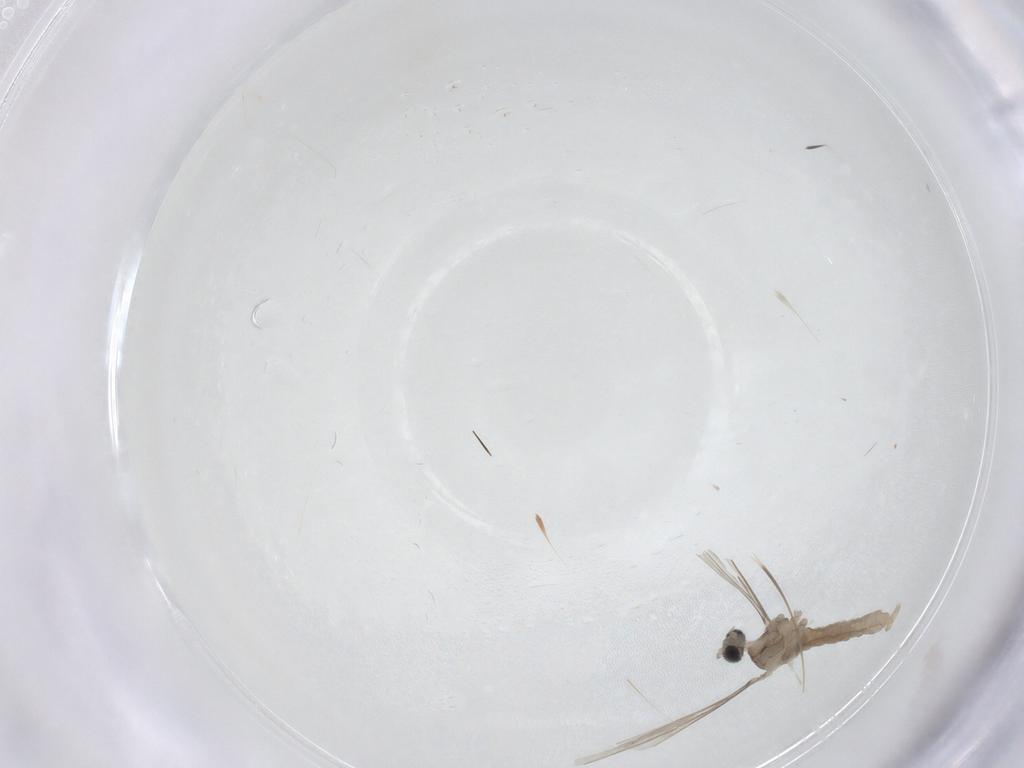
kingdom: Animalia
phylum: Arthropoda
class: Insecta
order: Diptera
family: Cecidomyiidae
